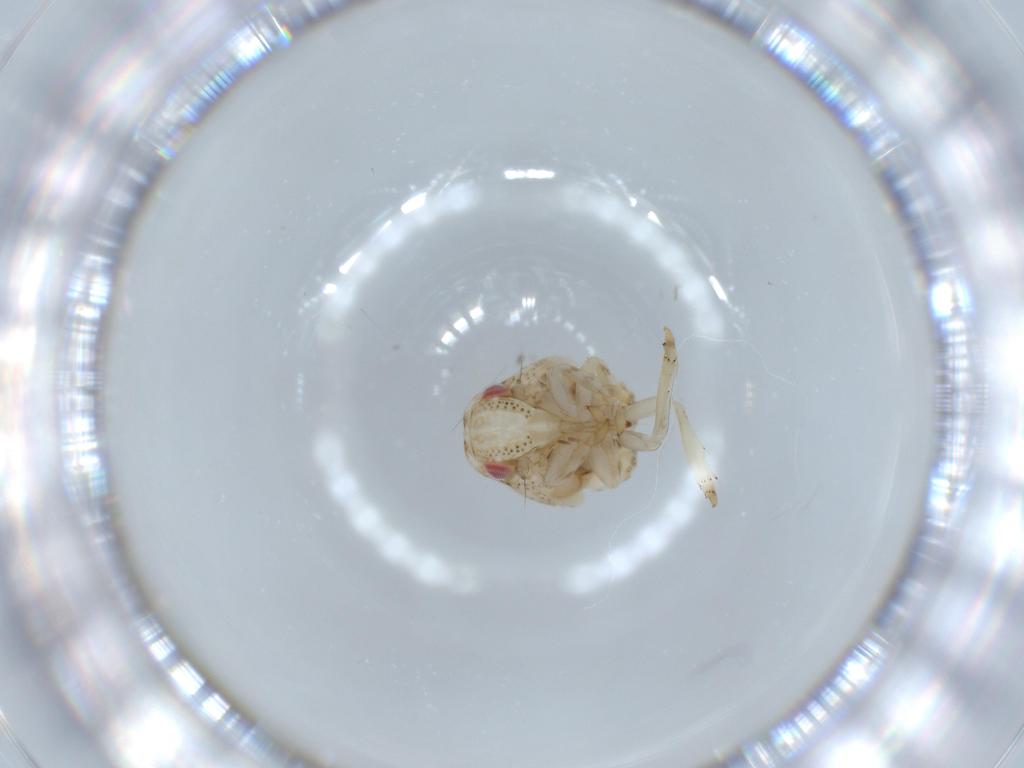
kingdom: Animalia
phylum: Arthropoda
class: Insecta
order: Hemiptera
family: Acanaloniidae
